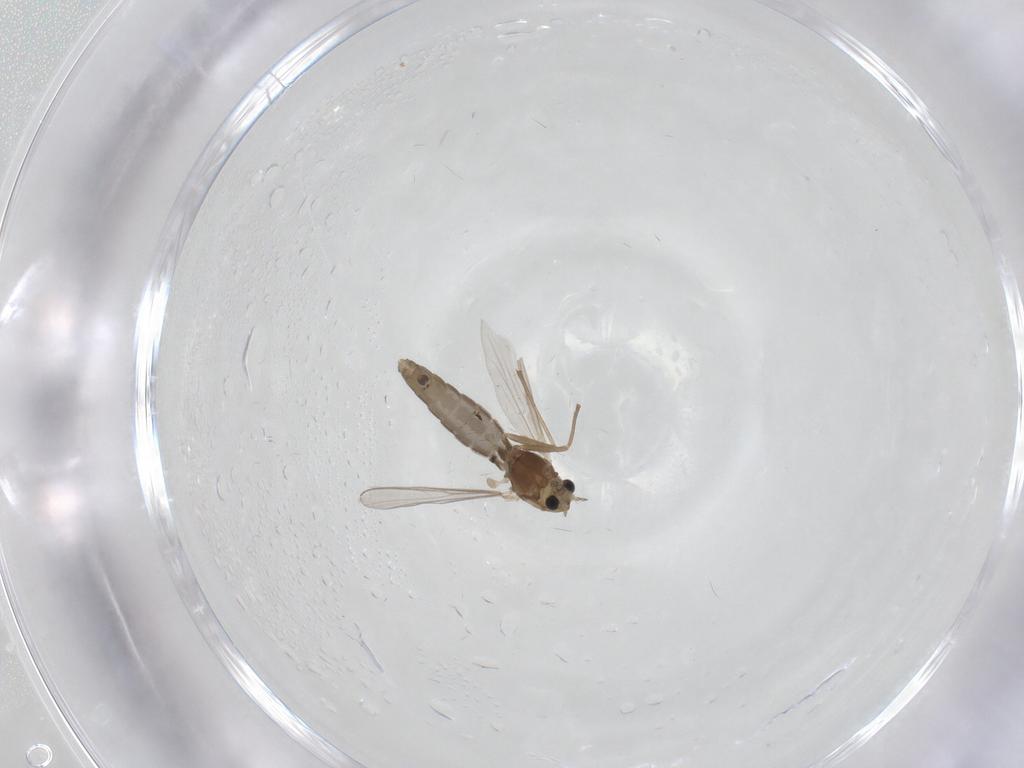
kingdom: Animalia
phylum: Arthropoda
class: Insecta
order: Diptera
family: Chironomidae
